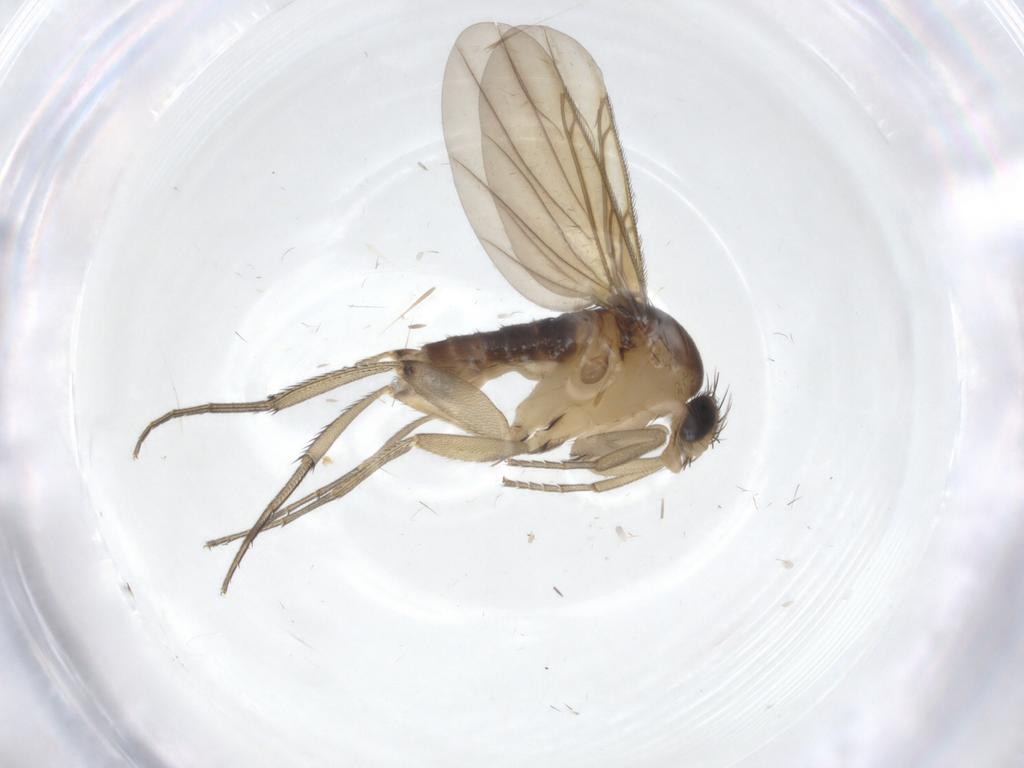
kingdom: Animalia
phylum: Arthropoda
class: Insecta
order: Diptera
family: Phoridae
